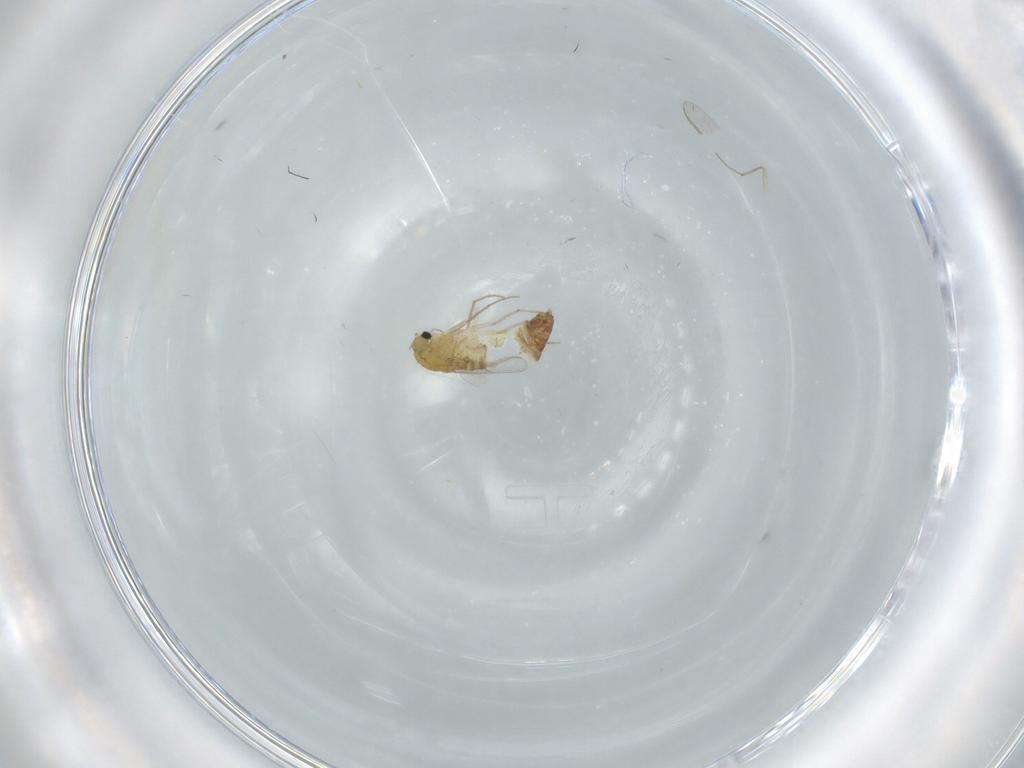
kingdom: Animalia
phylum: Arthropoda
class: Insecta
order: Diptera
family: Chironomidae
